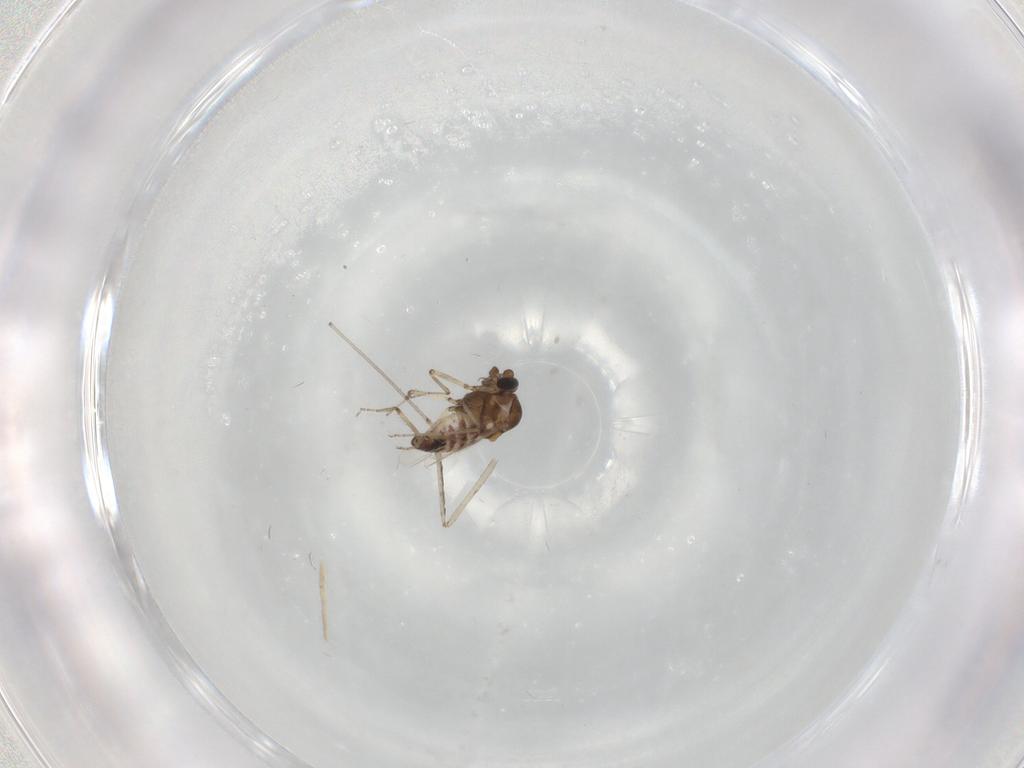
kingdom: Animalia
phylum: Arthropoda
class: Insecta
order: Diptera
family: Ceratopogonidae
